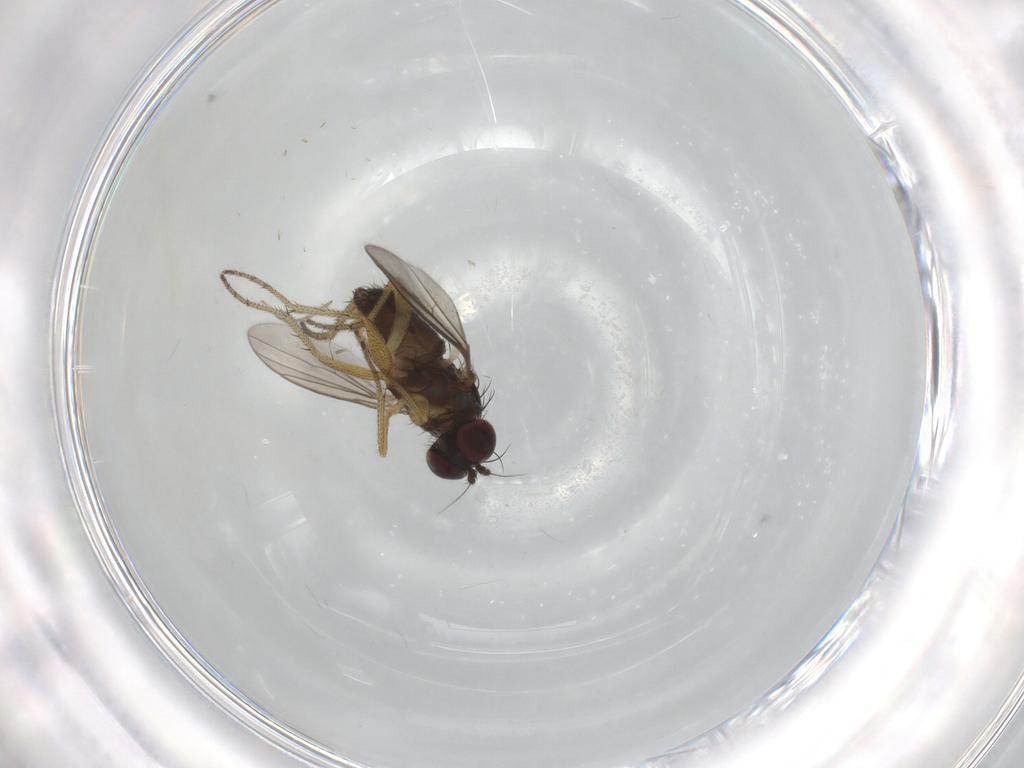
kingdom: Animalia
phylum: Arthropoda
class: Insecta
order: Diptera
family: Dolichopodidae
